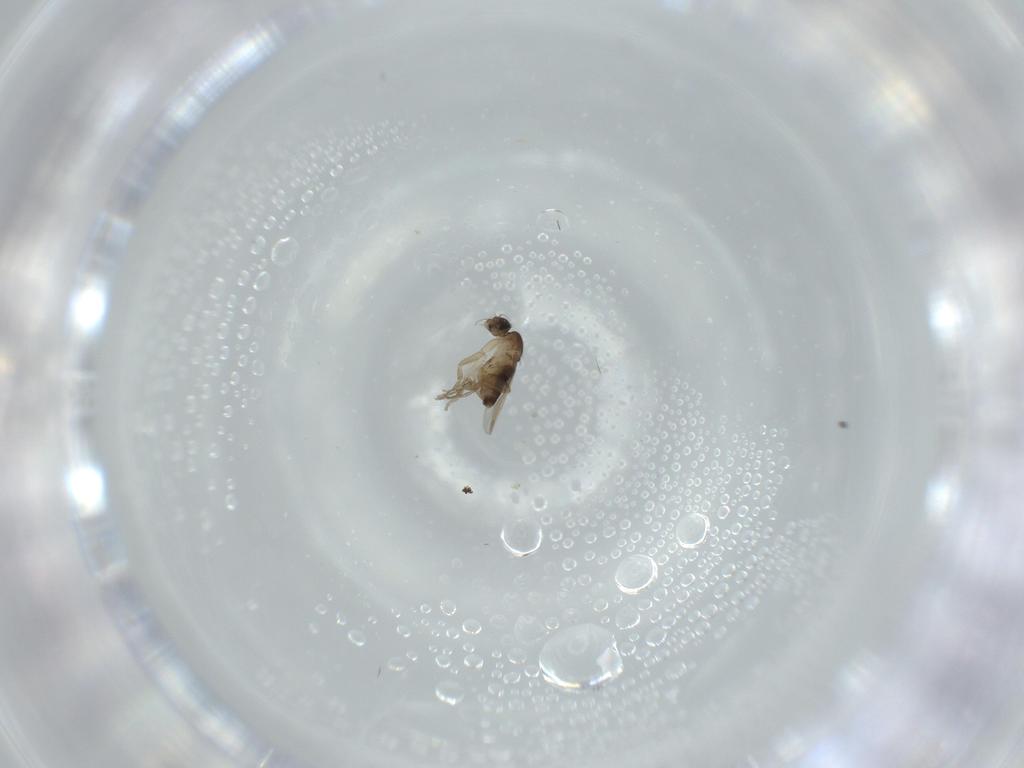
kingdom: Animalia
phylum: Arthropoda
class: Insecta
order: Diptera
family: Phoridae
